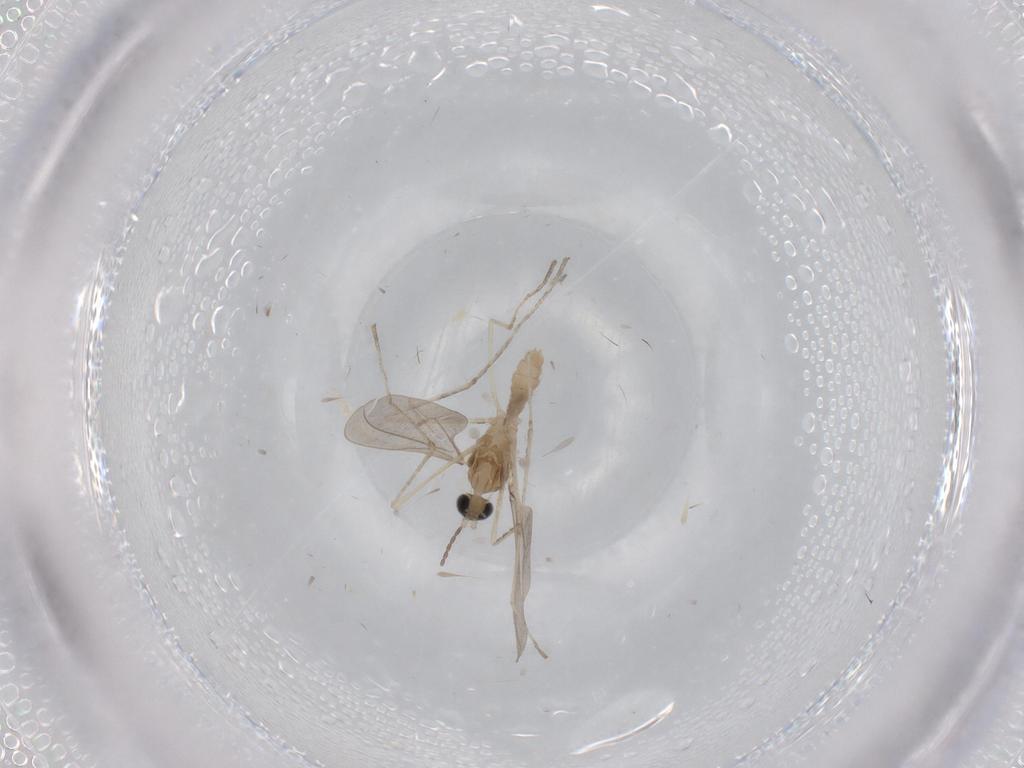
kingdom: Animalia
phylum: Arthropoda
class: Insecta
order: Diptera
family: Cecidomyiidae
